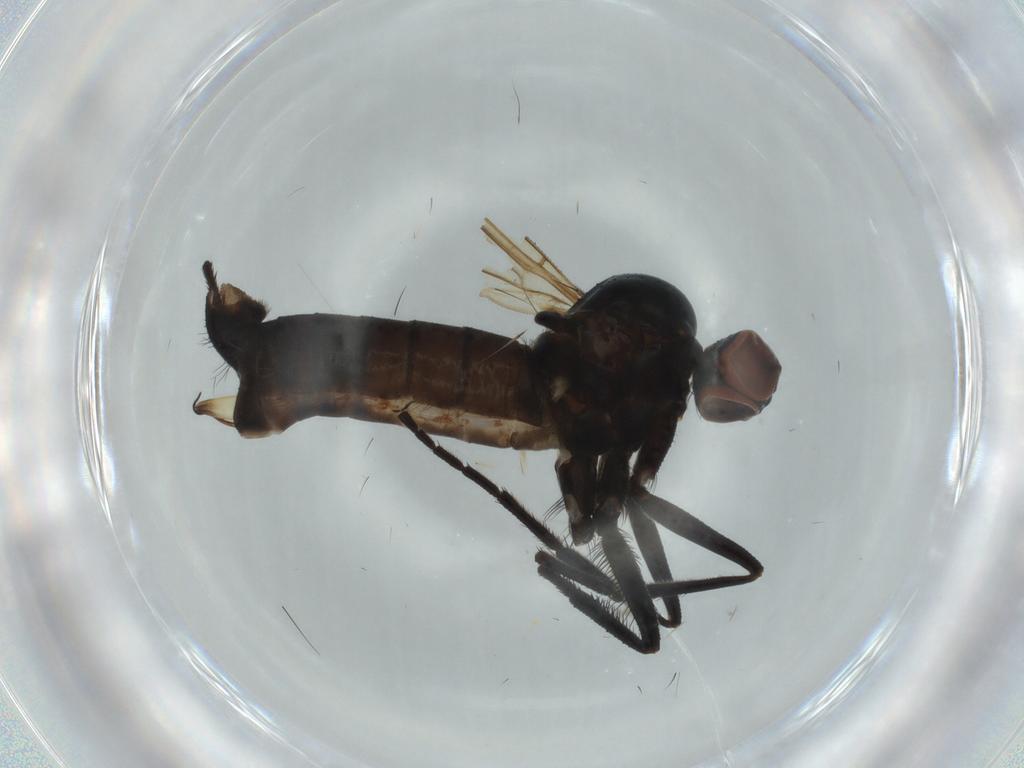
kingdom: Animalia
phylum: Arthropoda
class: Insecta
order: Diptera
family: Empididae
